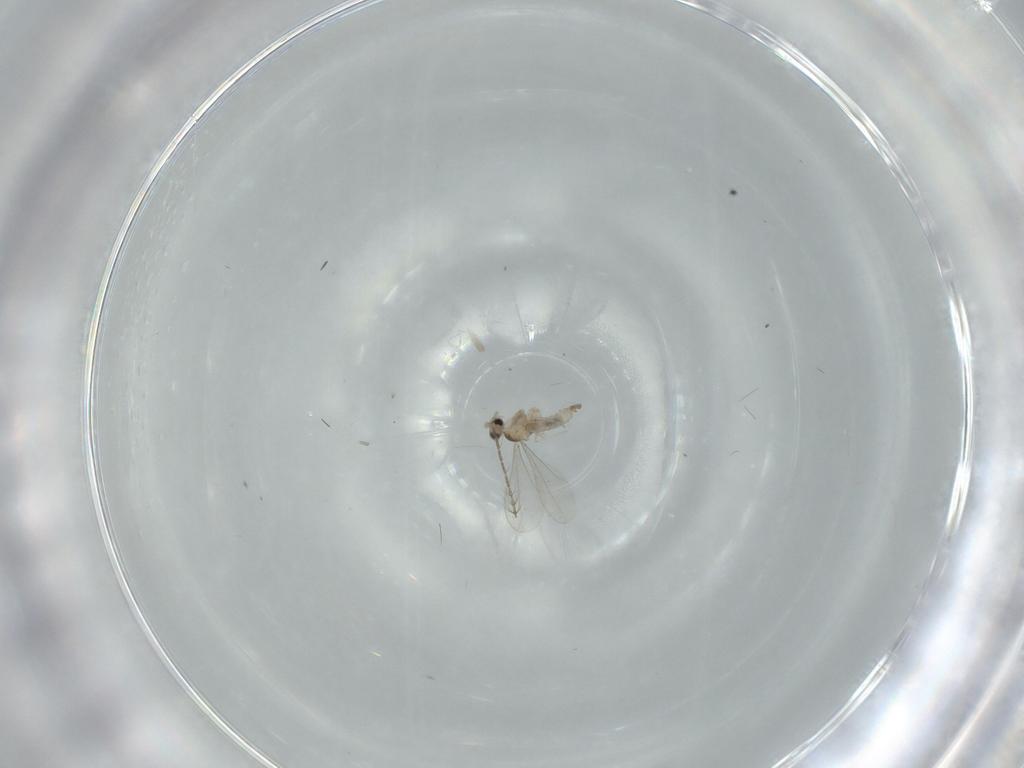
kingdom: Animalia
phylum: Arthropoda
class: Insecta
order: Diptera
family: Cecidomyiidae
